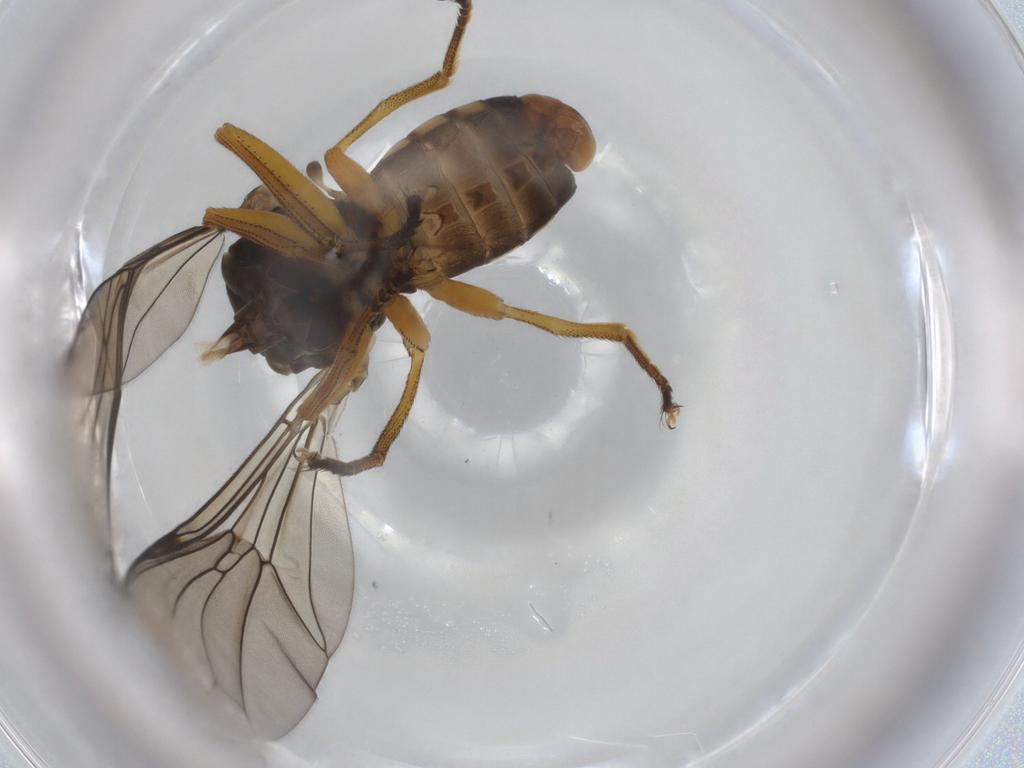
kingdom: Animalia
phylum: Arthropoda
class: Insecta
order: Diptera
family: Pipunculidae
